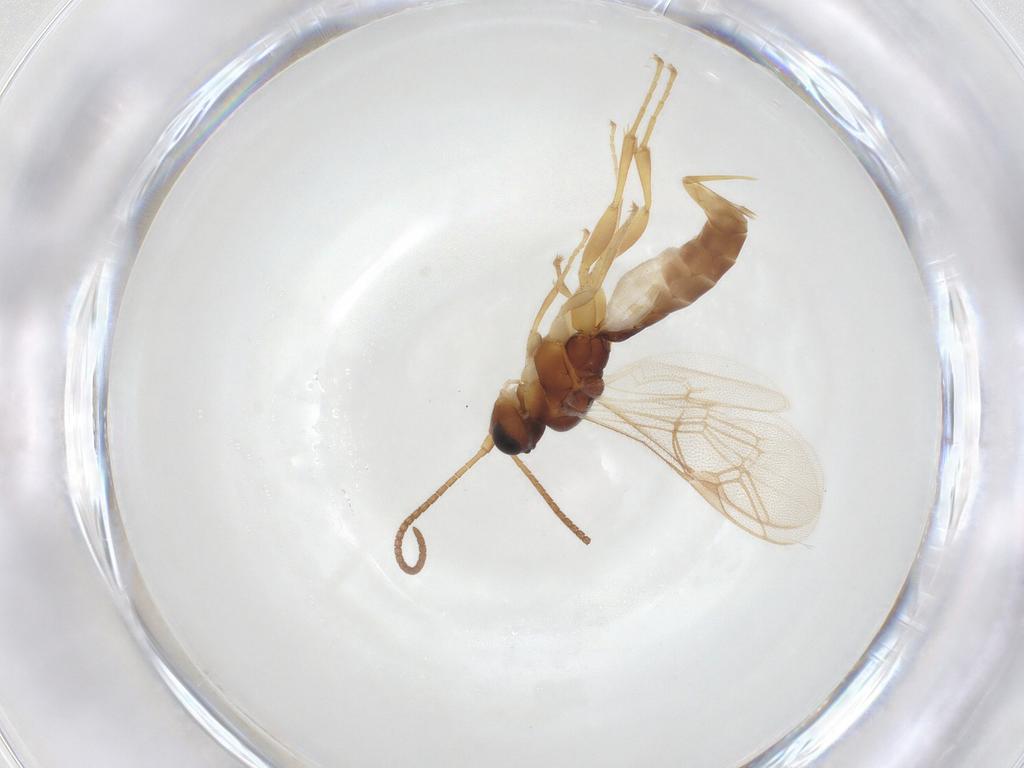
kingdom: Animalia
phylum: Arthropoda
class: Insecta
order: Hymenoptera
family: Ichneumonidae
